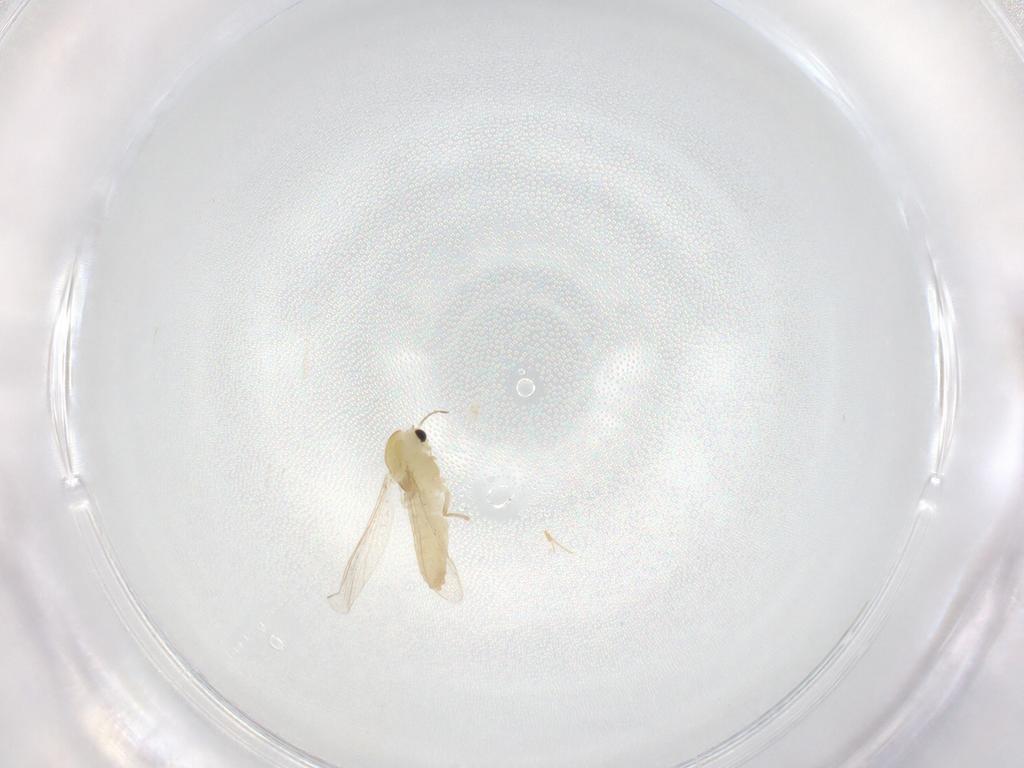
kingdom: Animalia
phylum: Arthropoda
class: Insecta
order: Diptera
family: Chironomidae
